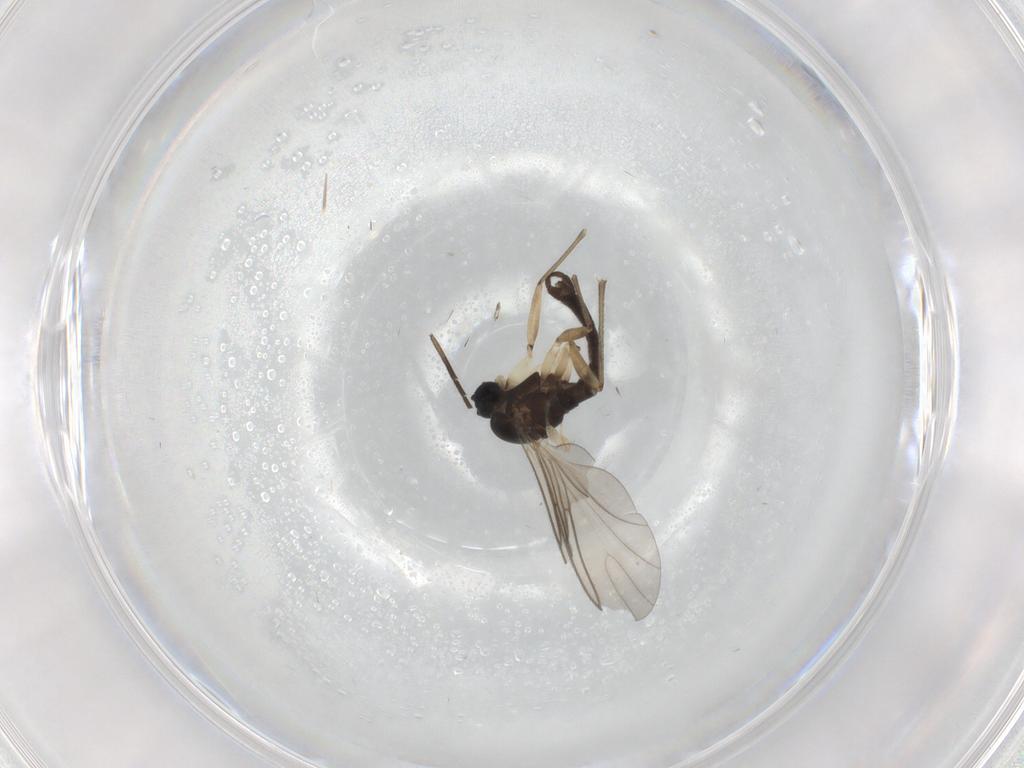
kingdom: Animalia
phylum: Arthropoda
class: Insecta
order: Diptera
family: Sciaridae
